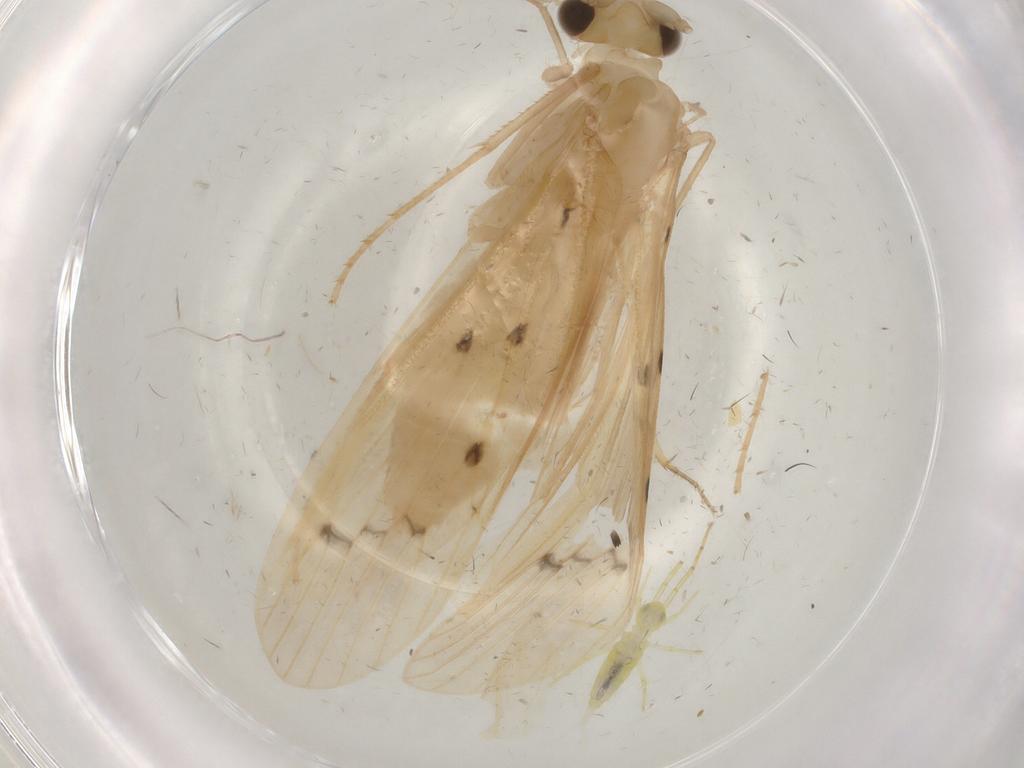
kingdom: Animalia
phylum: Arthropoda
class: Insecta
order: Trichoptera
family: Leptoceridae
